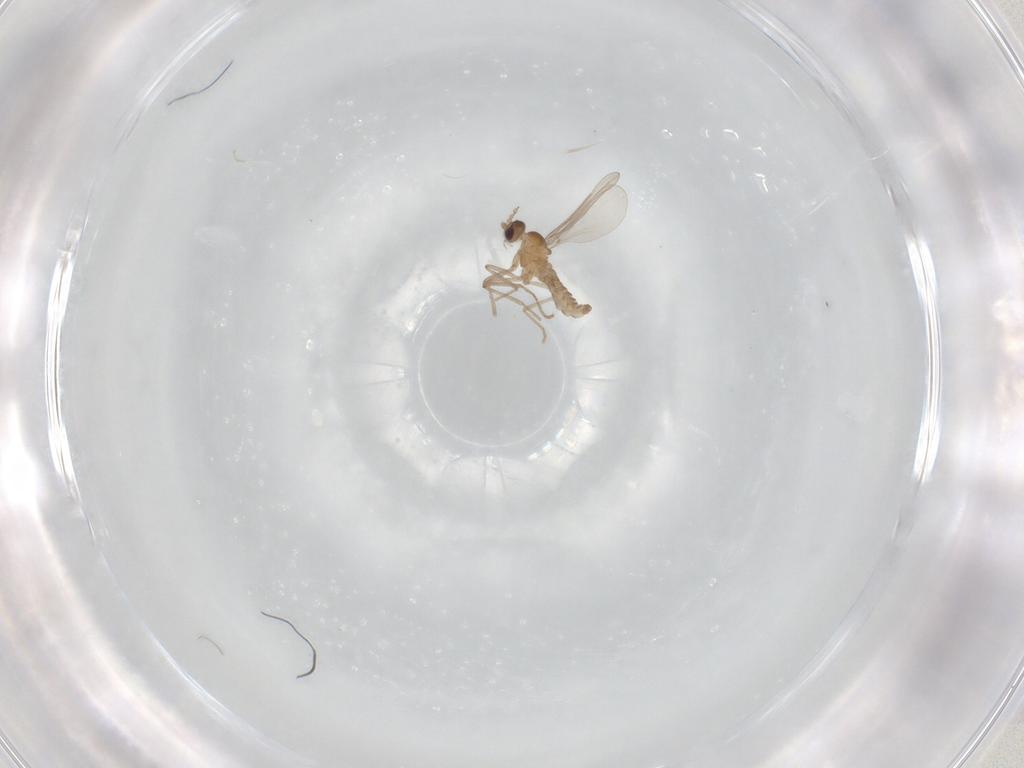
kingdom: Animalia
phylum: Arthropoda
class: Insecta
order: Diptera
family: Cecidomyiidae
